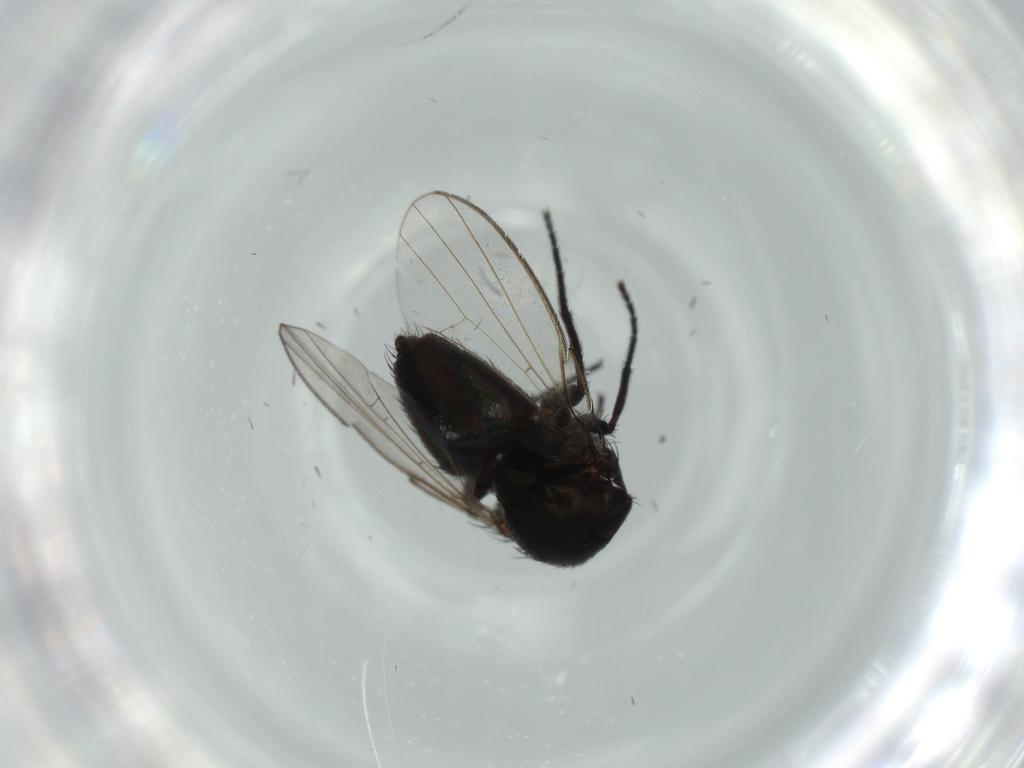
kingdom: Animalia
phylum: Arthropoda
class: Insecta
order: Diptera
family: Milichiidae
